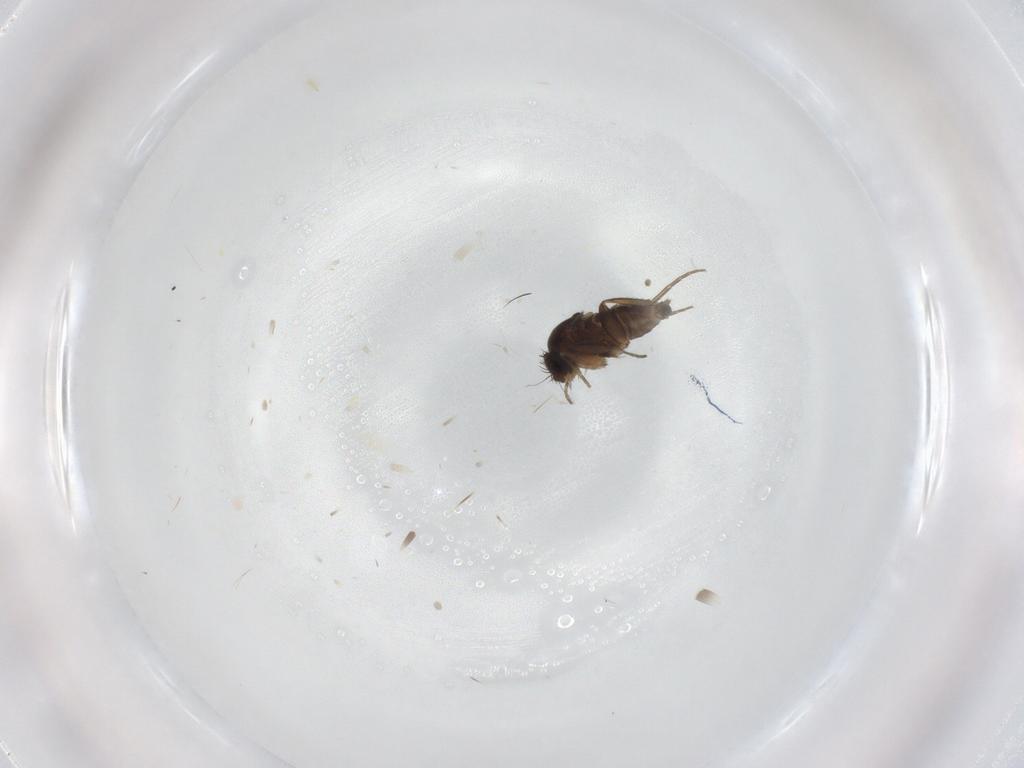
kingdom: Animalia
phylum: Arthropoda
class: Insecta
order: Diptera
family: Phoridae
